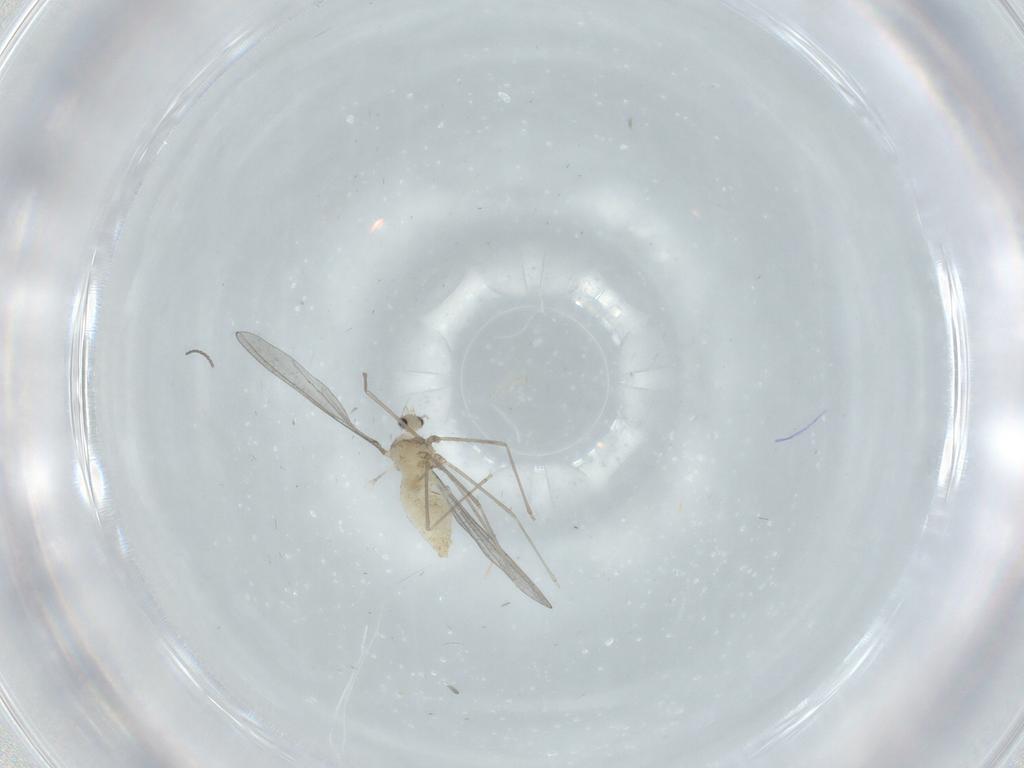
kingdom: Animalia
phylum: Arthropoda
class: Insecta
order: Diptera
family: Cecidomyiidae
